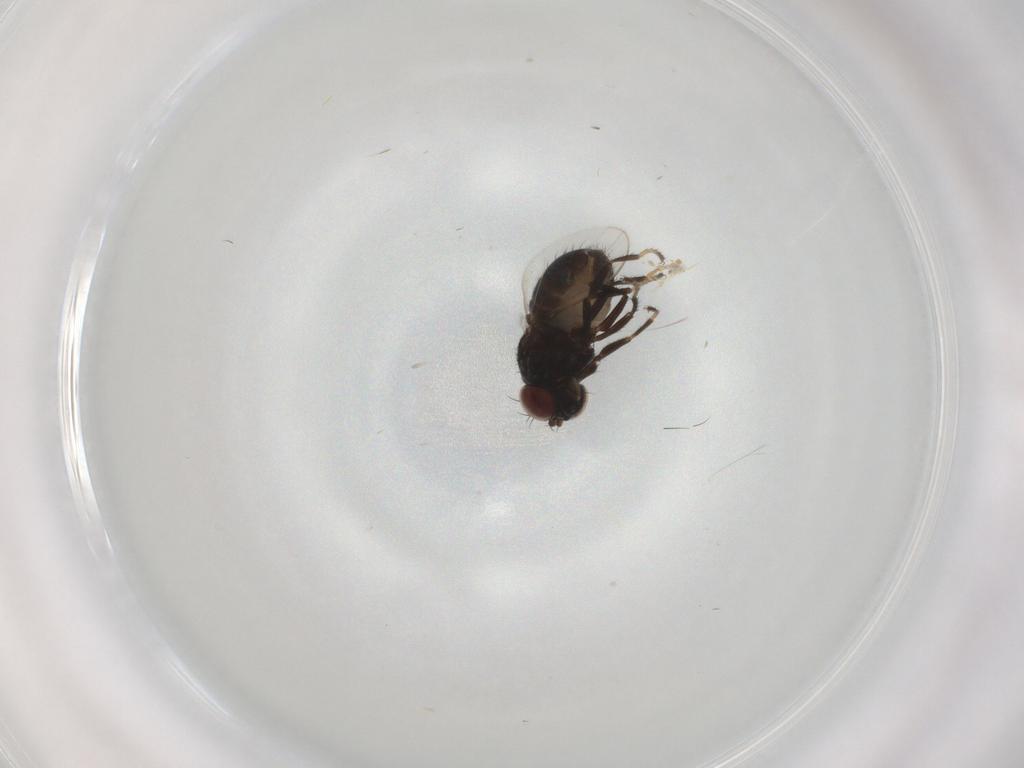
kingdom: Animalia
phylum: Arthropoda
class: Insecta
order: Diptera
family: Ephydridae
